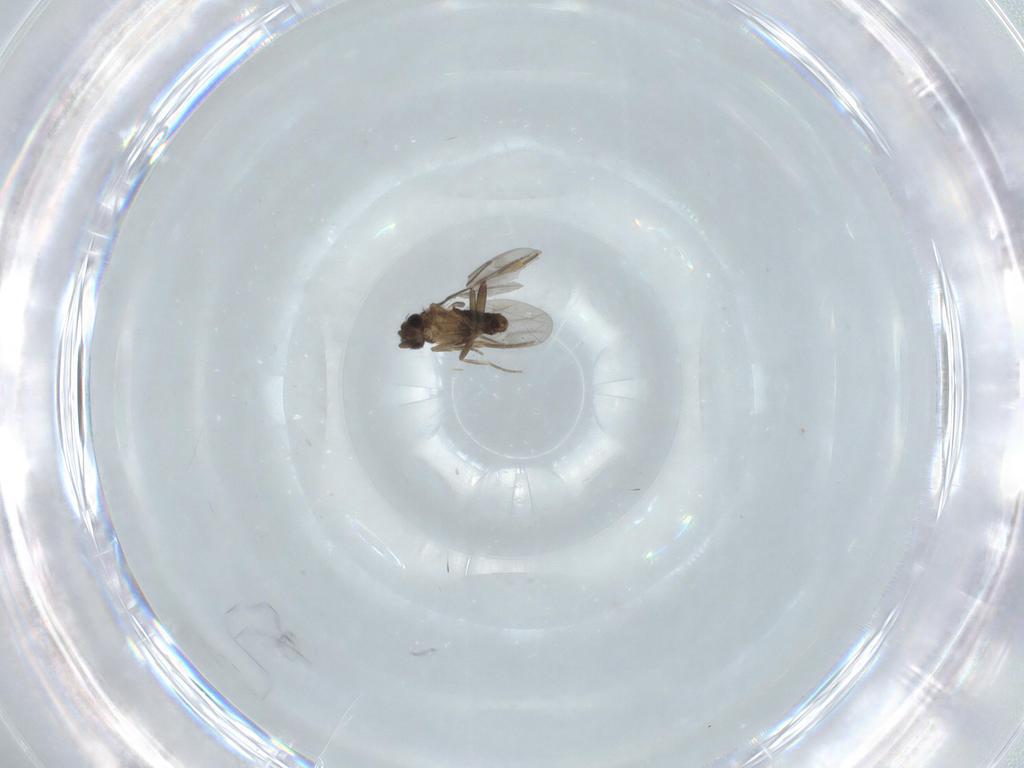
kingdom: Animalia
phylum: Arthropoda
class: Insecta
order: Diptera
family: Phoridae
